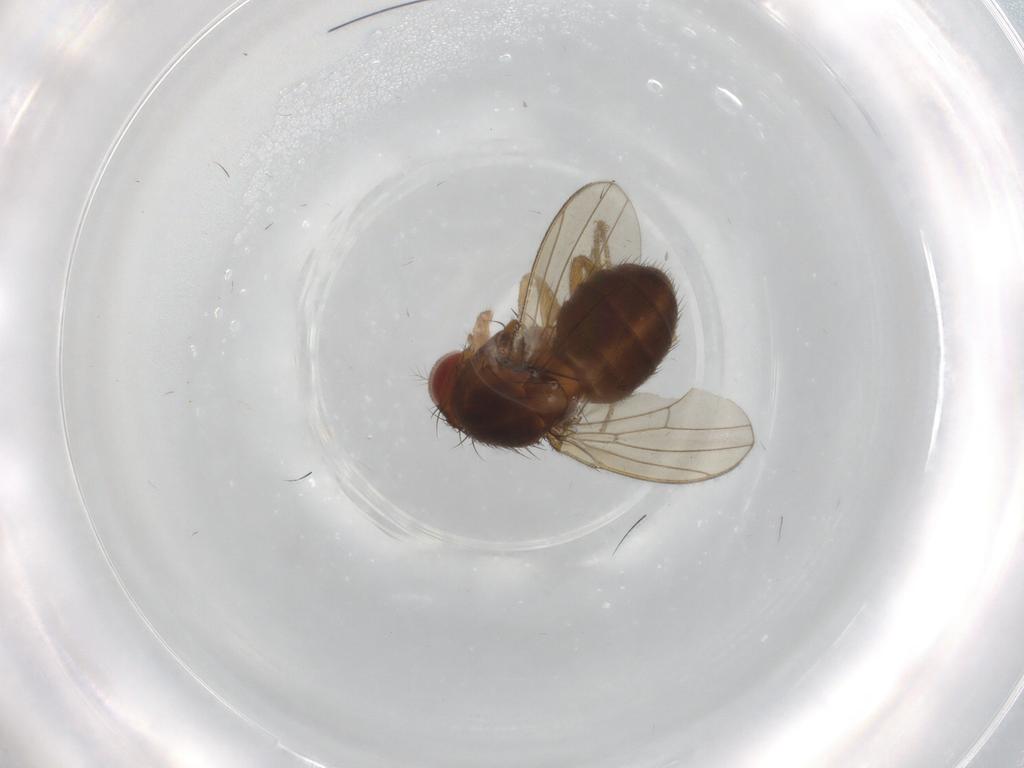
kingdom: Animalia
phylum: Arthropoda
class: Insecta
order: Diptera
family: Drosophilidae
